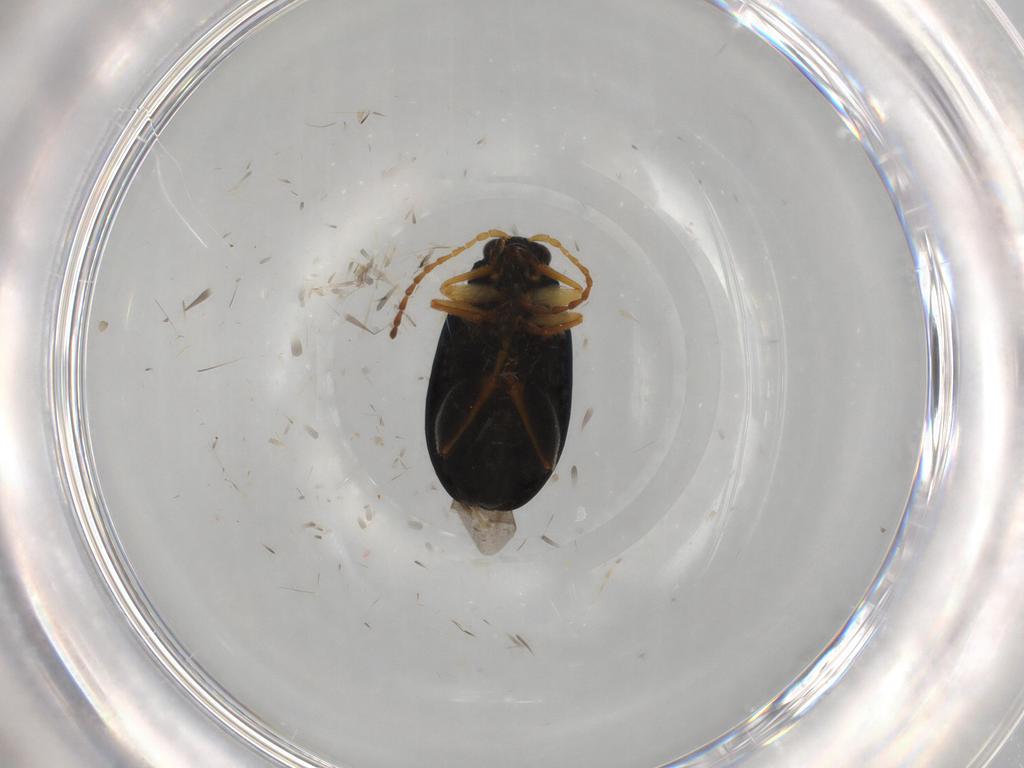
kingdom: Animalia
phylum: Arthropoda
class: Insecta
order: Coleoptera
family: Chrysomelidae
